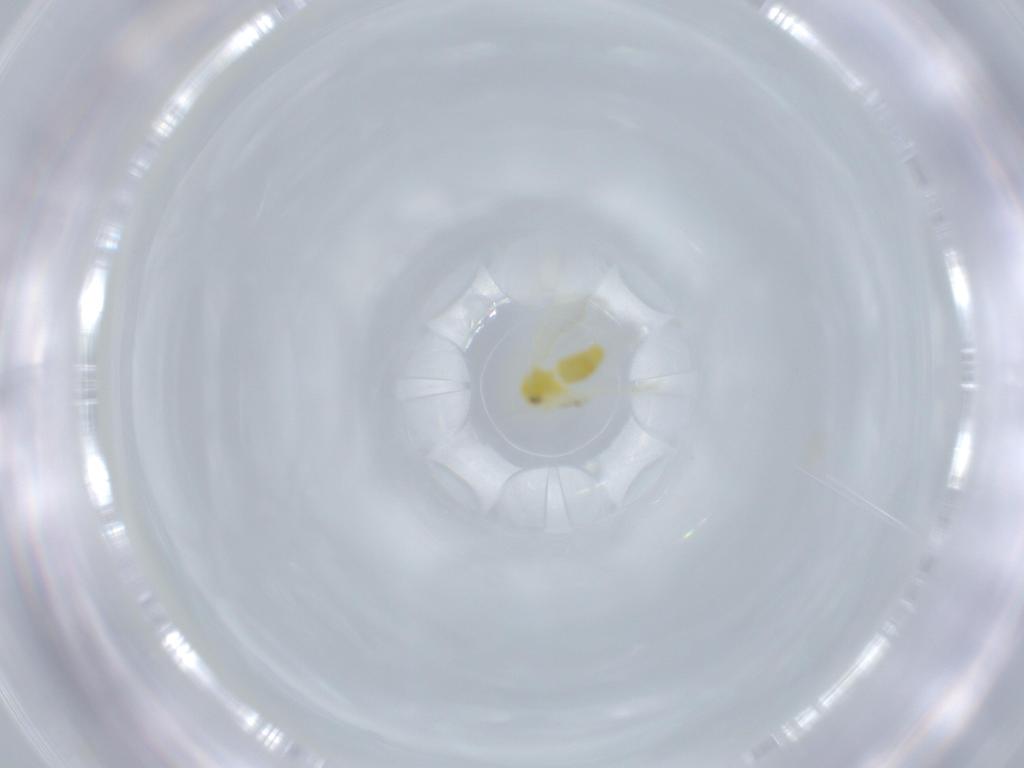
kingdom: Animalia
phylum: Arthropoda
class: Insecta
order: Hemiptera
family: Aleyrodidae
